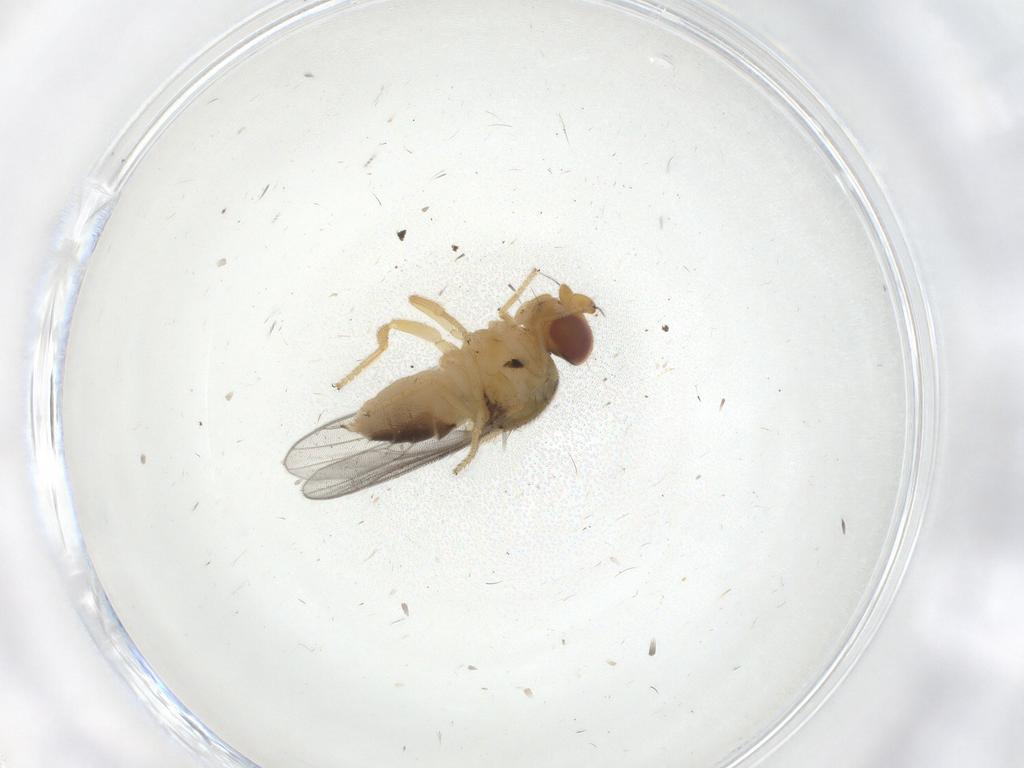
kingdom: Animalia
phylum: Arthropoda
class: Insecta
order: Diptera
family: Chloropidae
